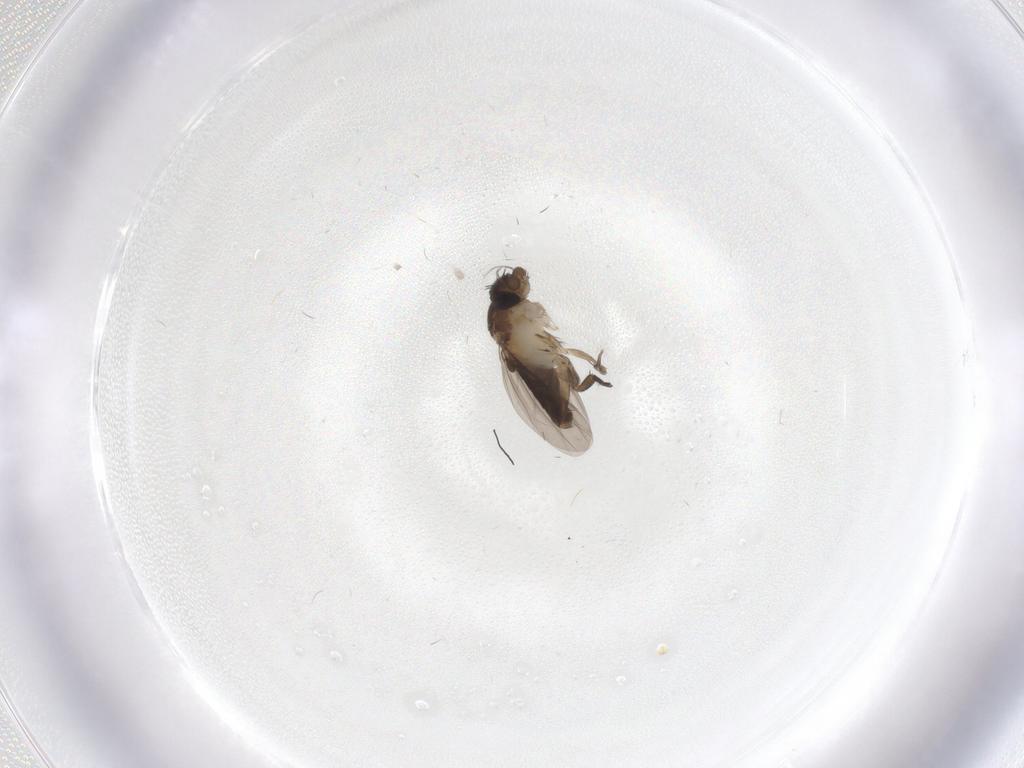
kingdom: Animalia
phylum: Arthropoda
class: Insecta
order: Diptera
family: Phoridae
